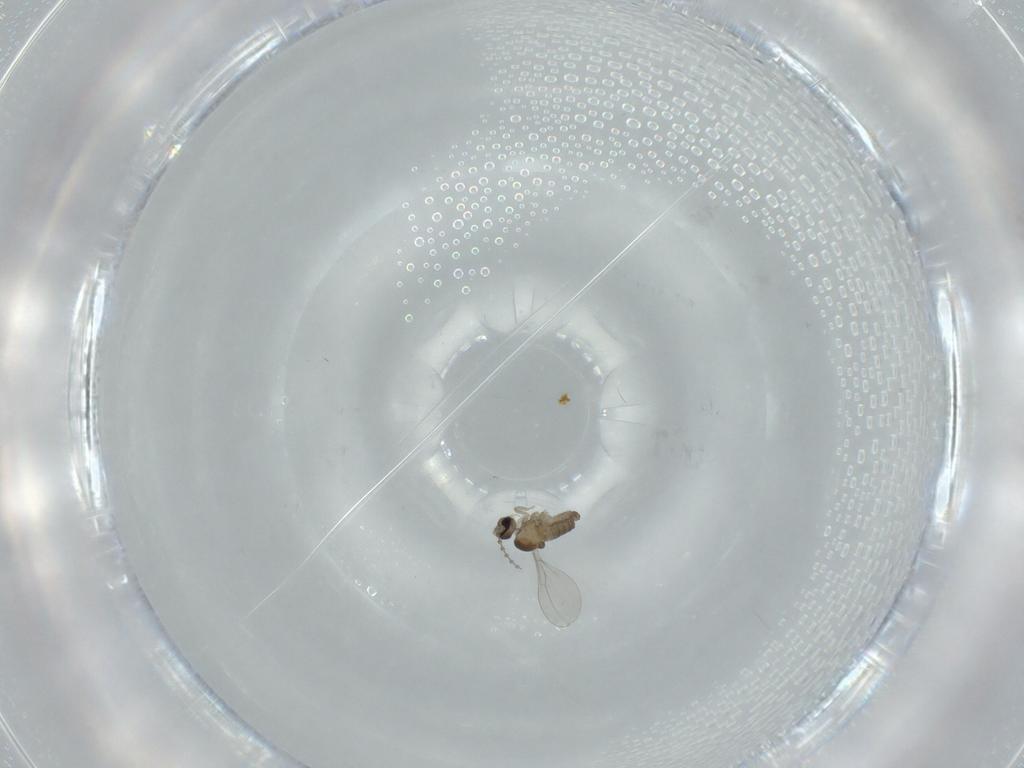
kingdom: Animalia
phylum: Arthropoda
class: Insecta
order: Diptera
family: Cecidomyiidae
